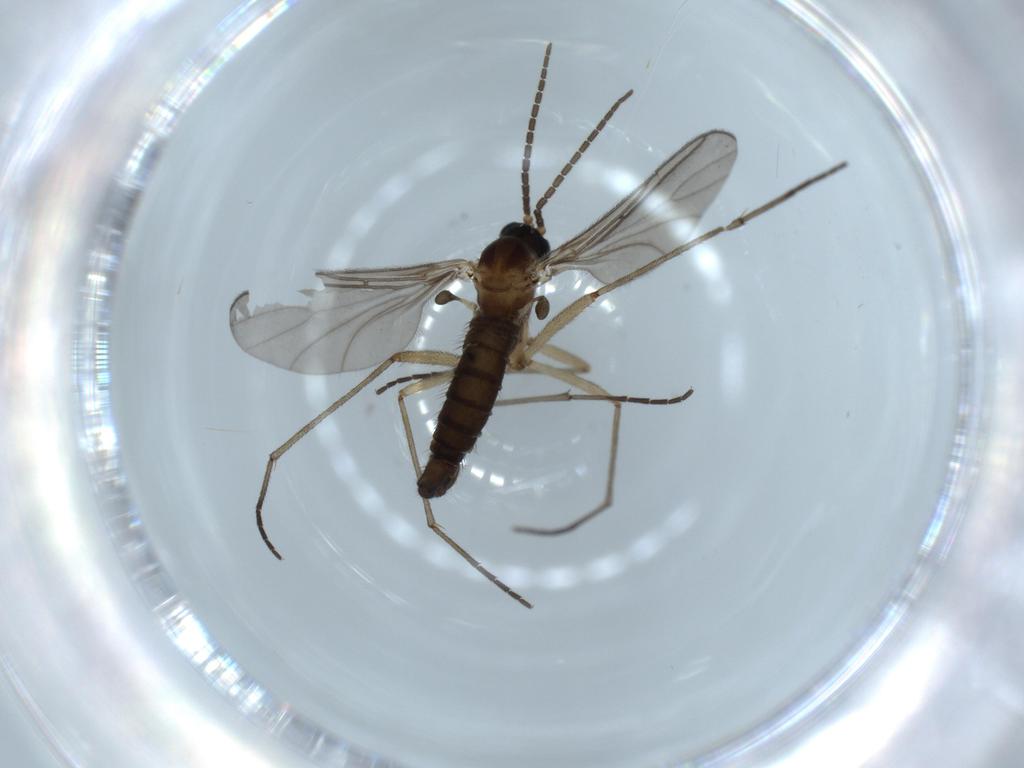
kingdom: Animalia
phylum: Arthropoda
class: Insecta
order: Diptera
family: Sciaridae
